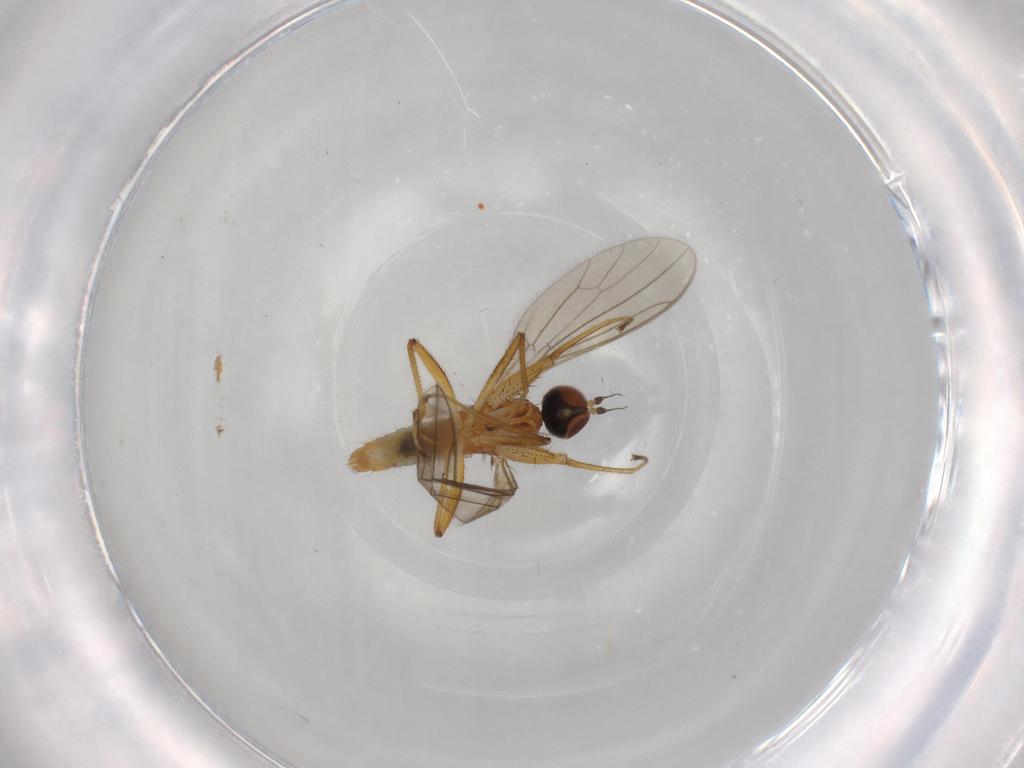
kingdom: Animalia
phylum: Arthropoda
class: Insecta
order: Diptera
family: Empididae
